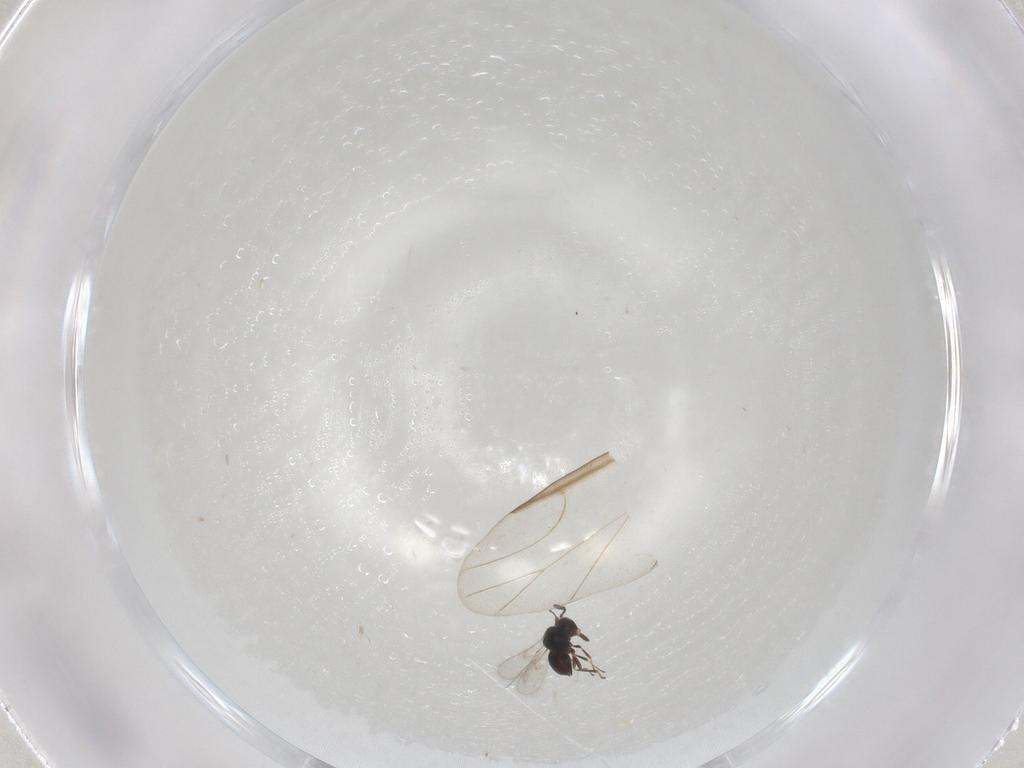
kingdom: Animalia
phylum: Arthropoda
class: Insecta
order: Hymenoptera
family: Scelionidae
